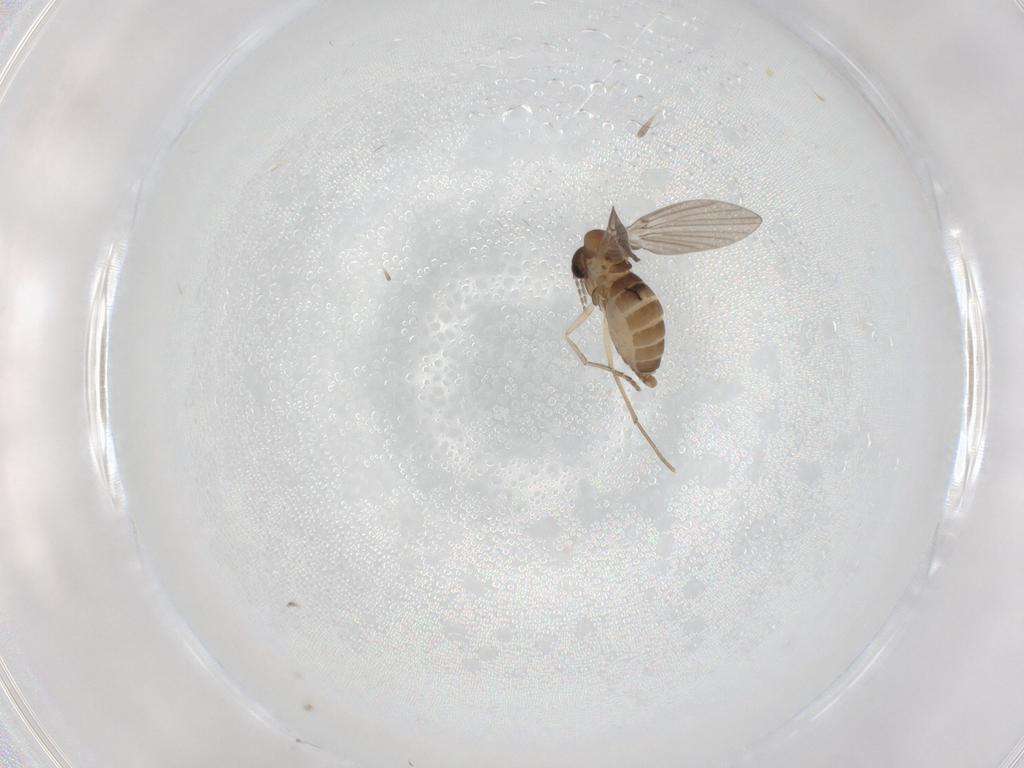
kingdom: Animalia
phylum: Arthropoda
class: Insecta
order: Diptera
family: Psychodidae
